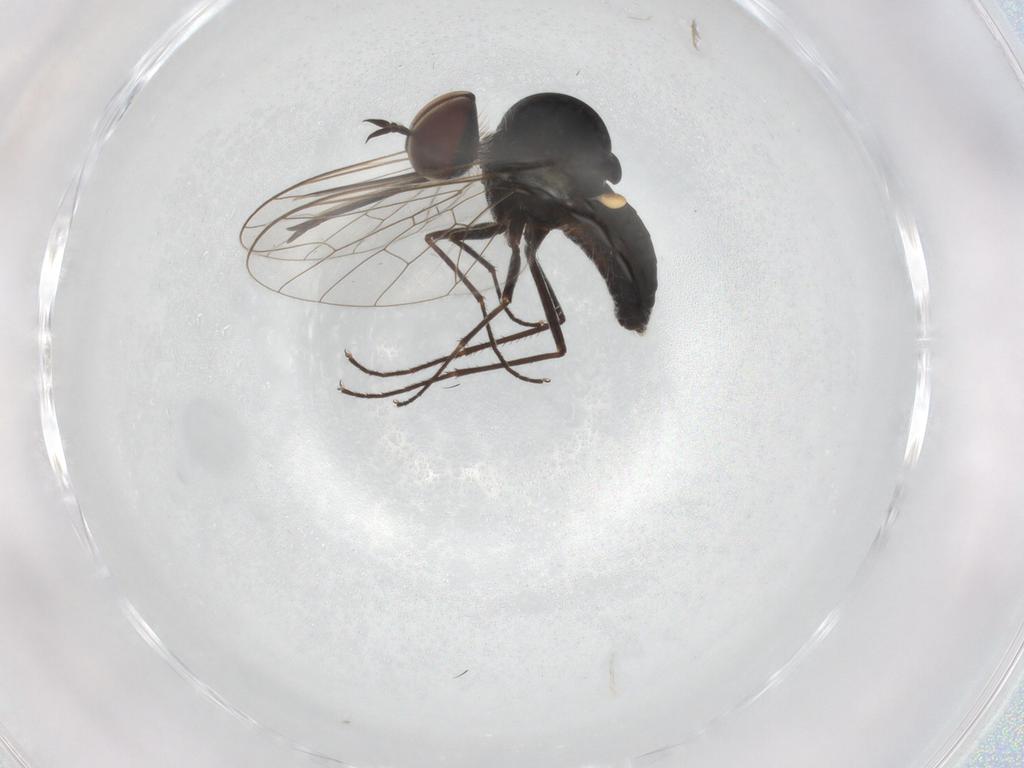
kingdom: Animalia
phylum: Arthropoda
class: Insecta
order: Diptera
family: Bombyliidae
